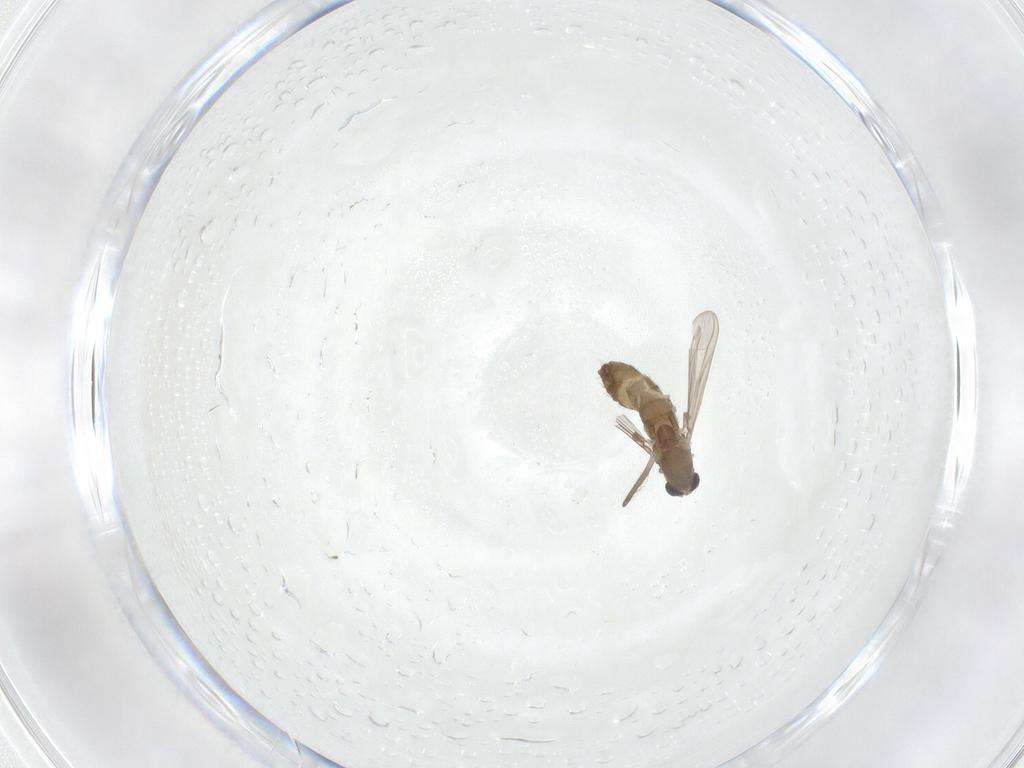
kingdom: Animalia
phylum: Arthropoda
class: Insecta
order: Diptera
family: Chironomidae
